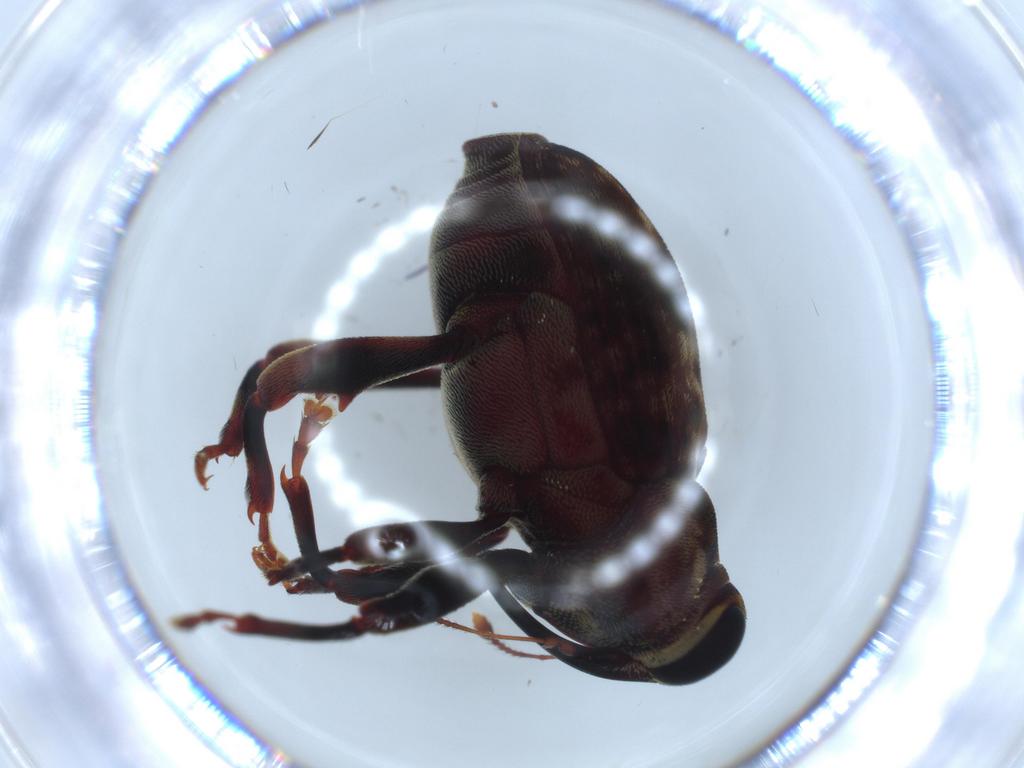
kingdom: Animalia
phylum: Arthropoda
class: Insecta
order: Coleoptera
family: Curculionidae
